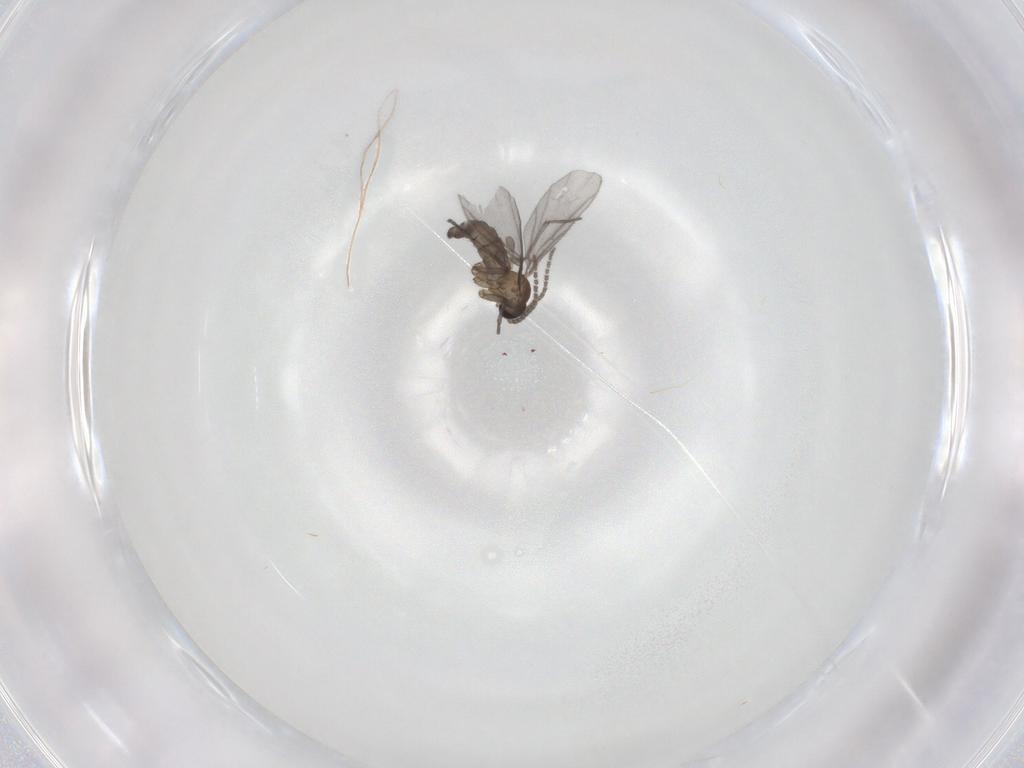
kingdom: Animalia
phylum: Arthropoda
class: Insecta
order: Diptera
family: Sciaridae
